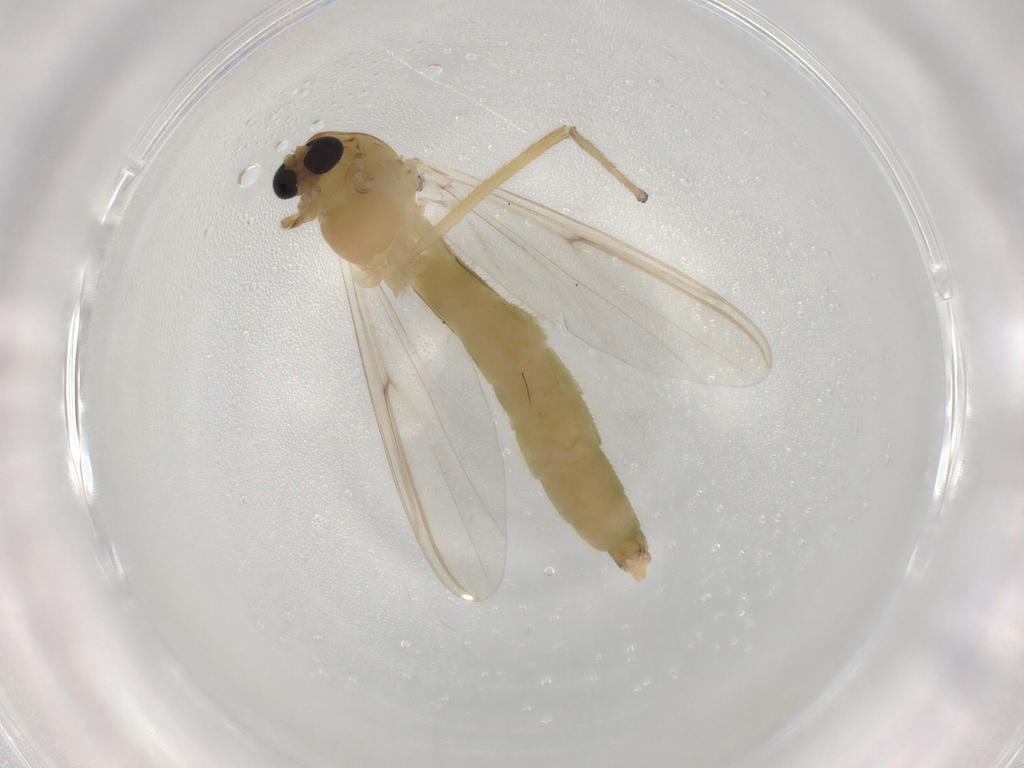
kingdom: Animalia
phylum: Arthropoda
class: Insecta
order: Diptera
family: Chironomidae
